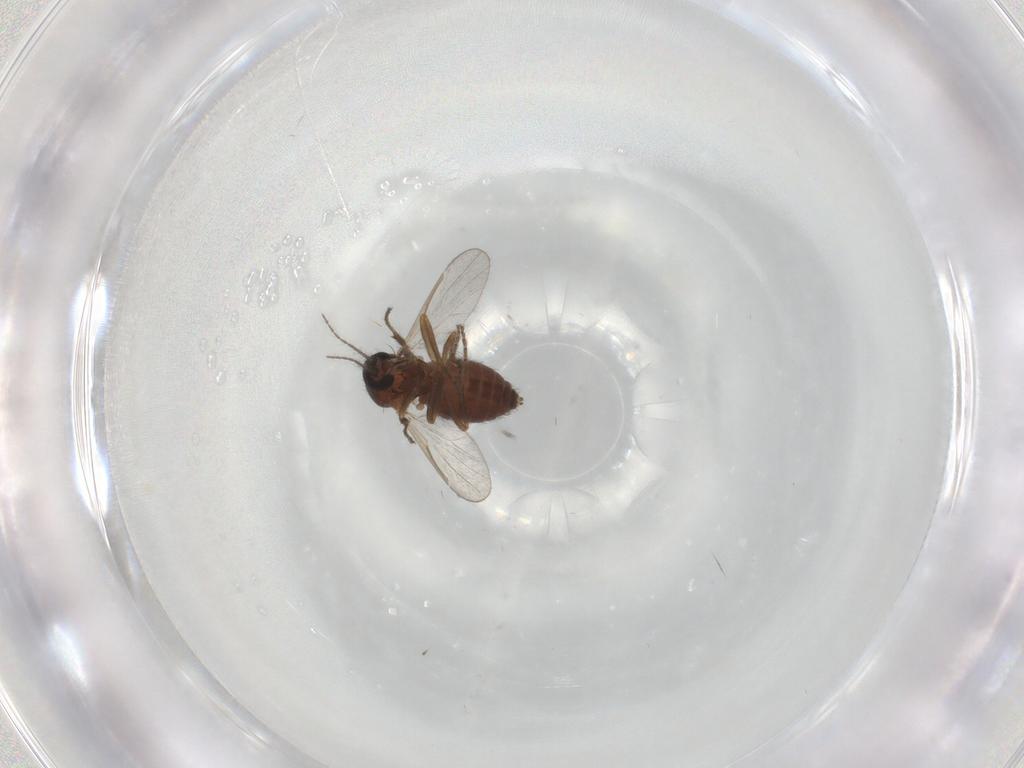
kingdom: Animalia
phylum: Arthropoda
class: Insecta
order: Diptera
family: Ceratopogonidae
